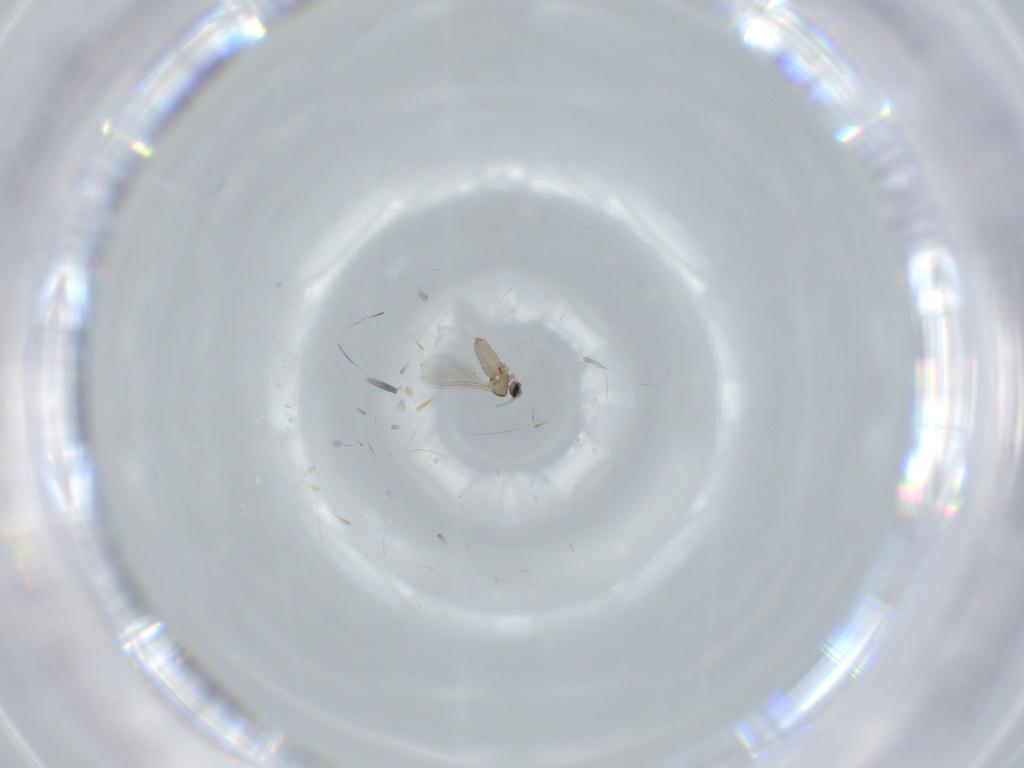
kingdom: Animalia
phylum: Arthropoda
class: Insecta
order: Diptera
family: Cecidomyiidae
